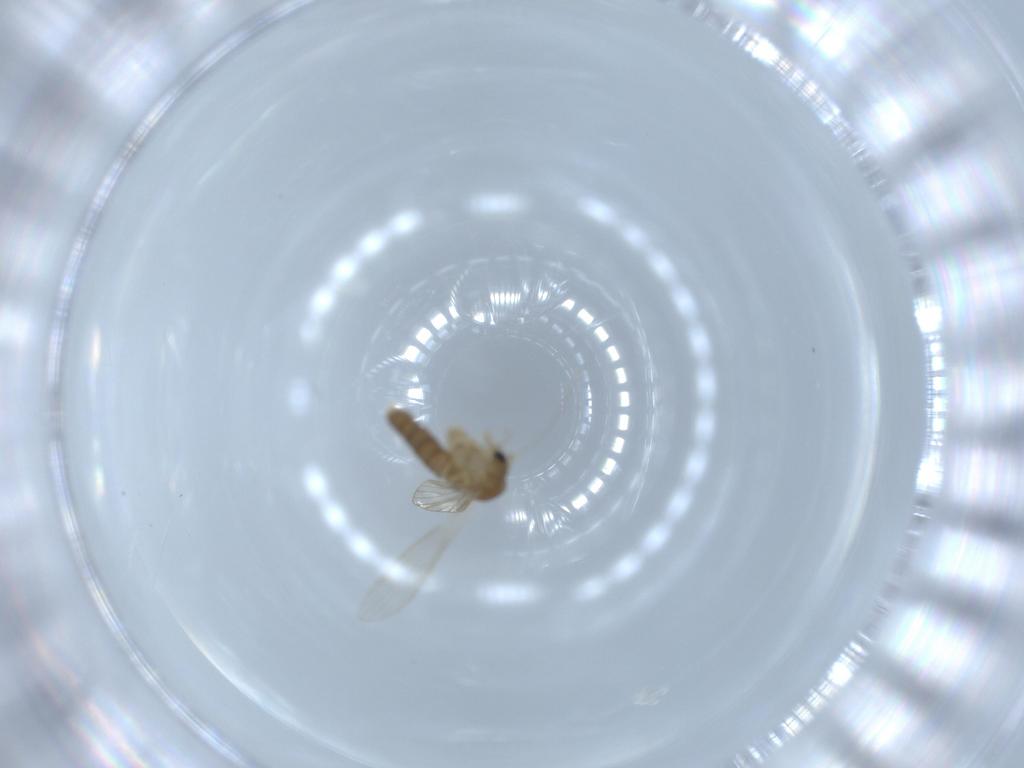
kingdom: Animalia
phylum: Arthropoda
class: Insecta
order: Diptera
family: Psychodidae
